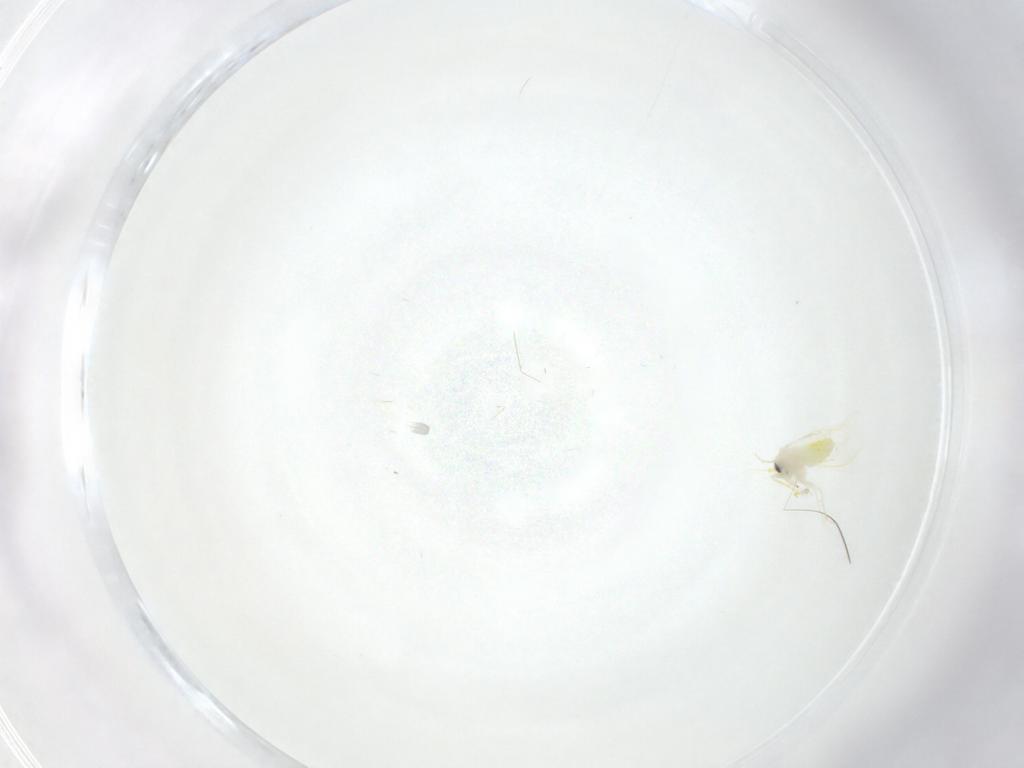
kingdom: Animalia
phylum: Arthropoda
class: Insecta
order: Hemiptera
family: Aleyrodidae
